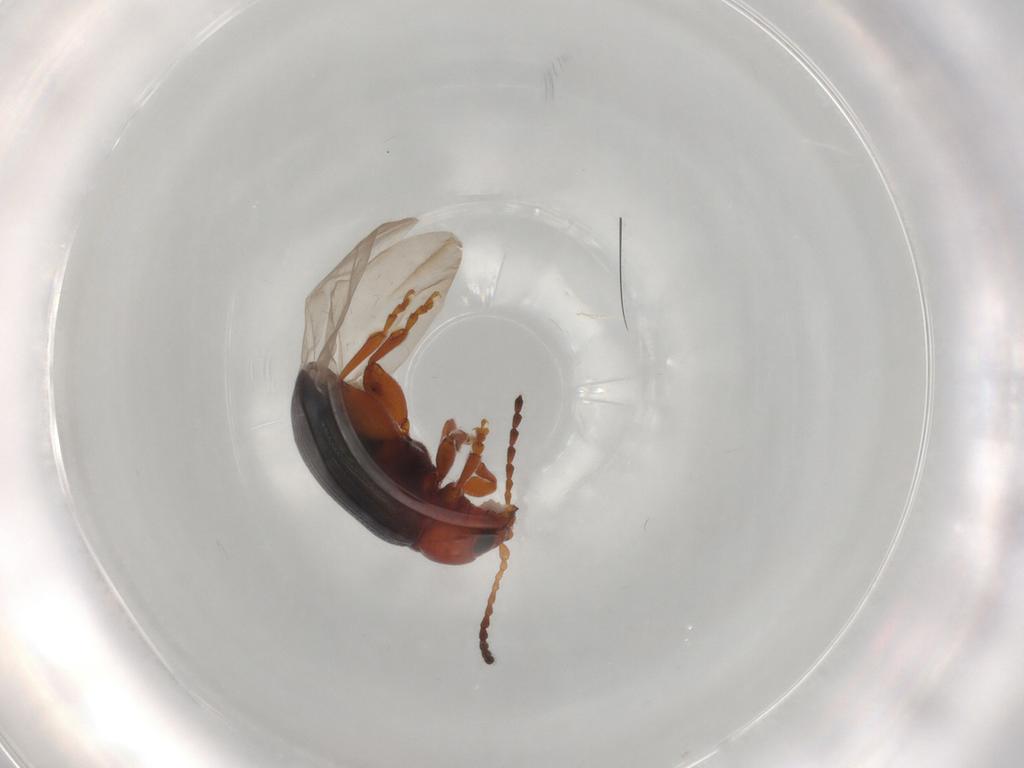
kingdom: Animalia
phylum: Arthropoda
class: Insecta
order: Coleoptera
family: Chrysomelidae
